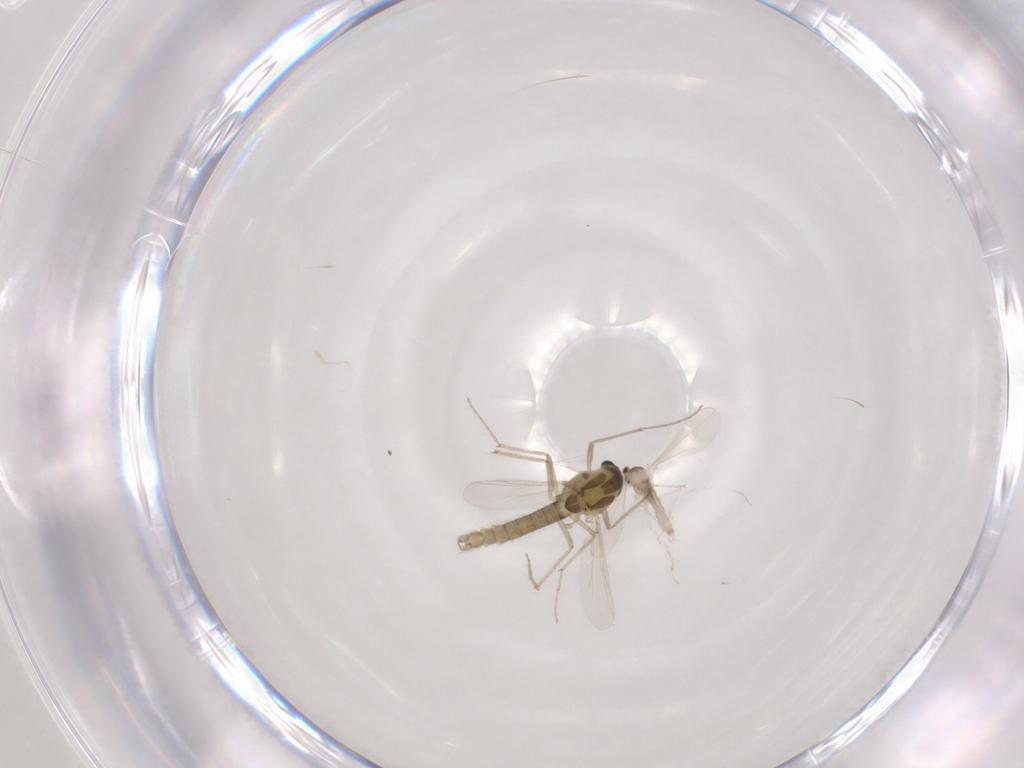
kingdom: Animalia
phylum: Arthropoda
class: Insecta
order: Diptera
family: Chironomidae
